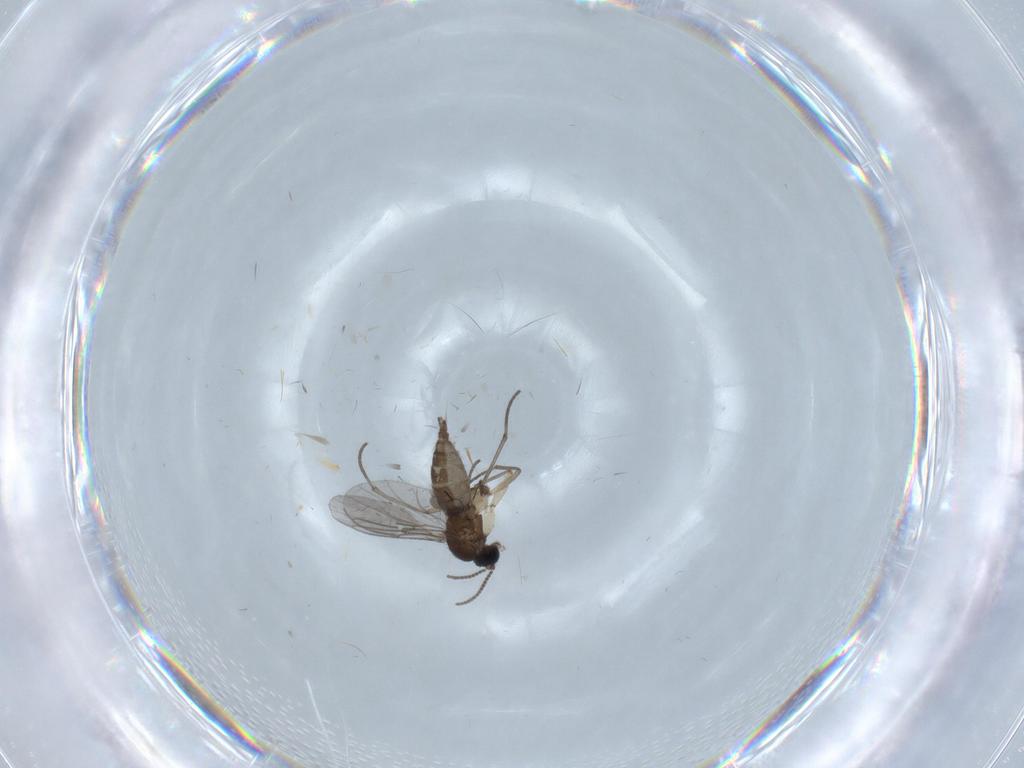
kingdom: Animalia
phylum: Arthropoda
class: Insecta
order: Diptera
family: Sciaridae
